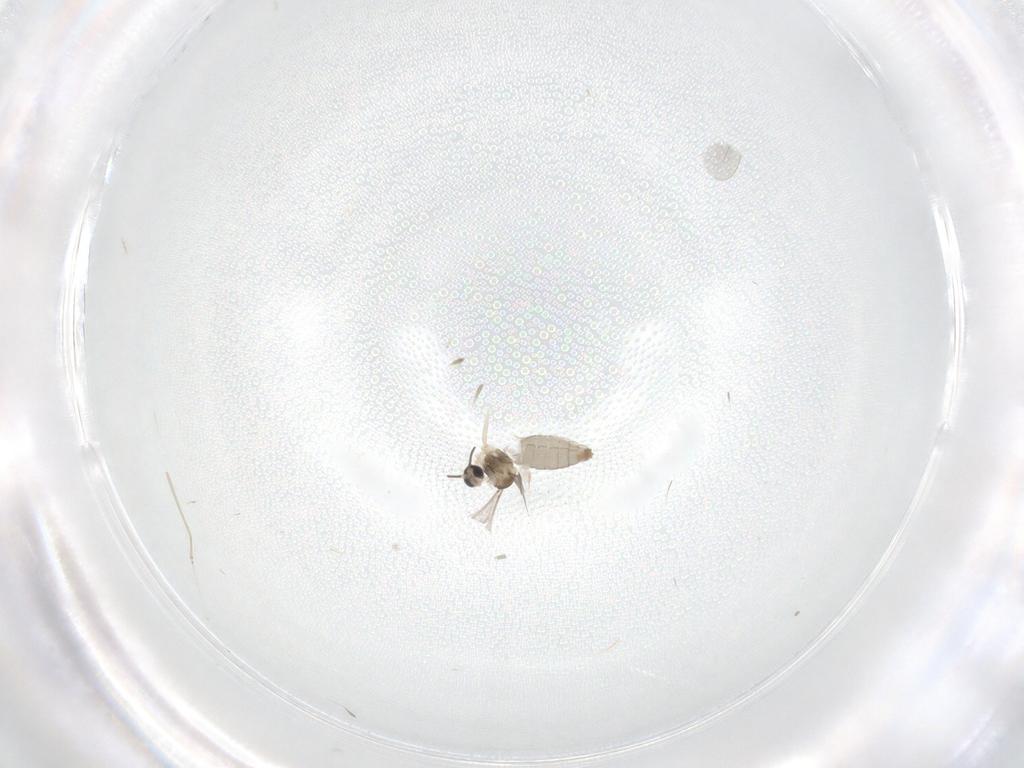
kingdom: Animalia
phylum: Arthropoda
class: Insecta
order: Diptera
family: Cecidomyiidae
